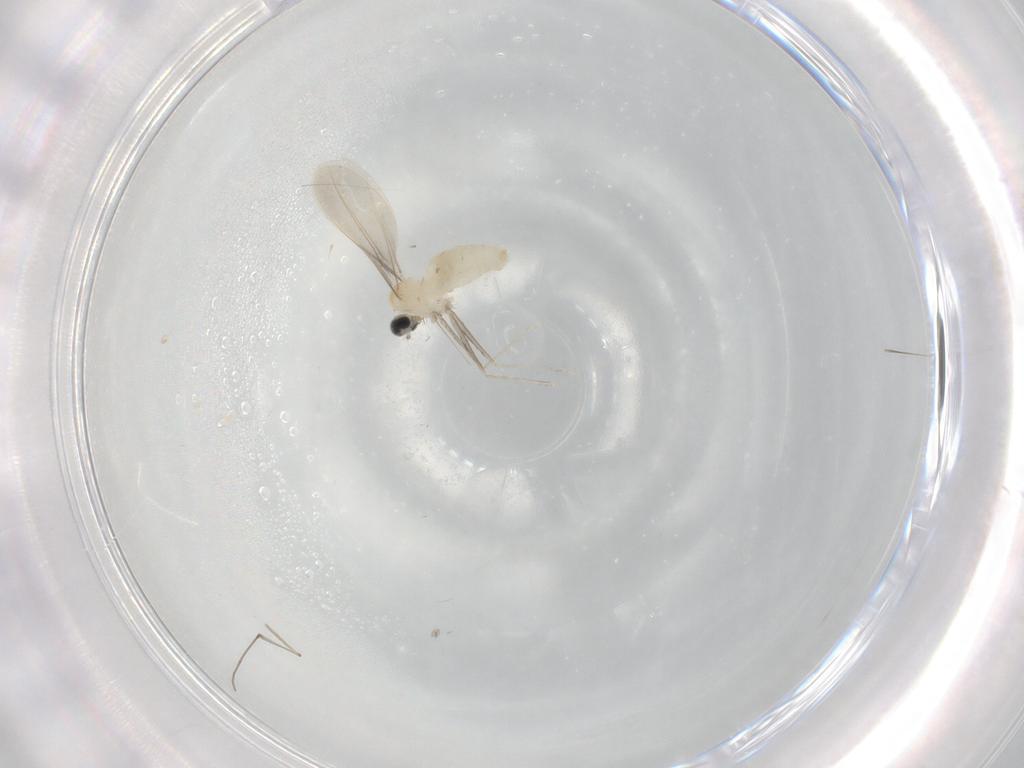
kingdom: Animalia
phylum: Arthropoda
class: Insecta
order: Diptera
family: Cecidomyiidae
